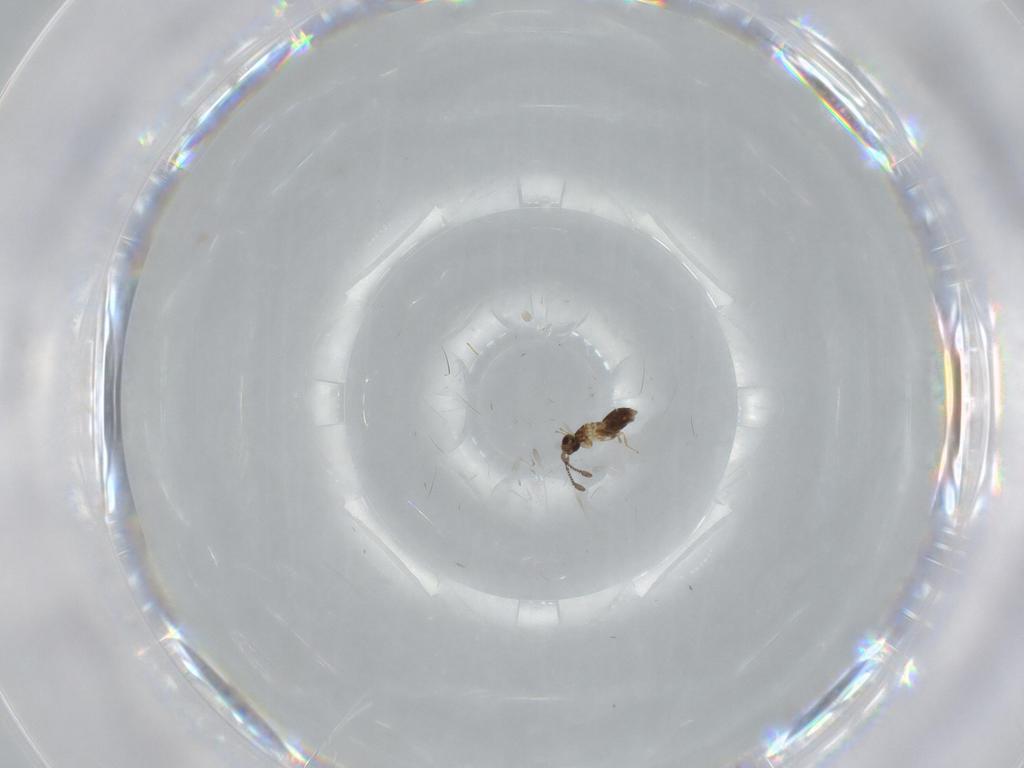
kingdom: Animalia
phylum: Arthropoda
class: Insecta
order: Hymenoptera
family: Mymaridae
